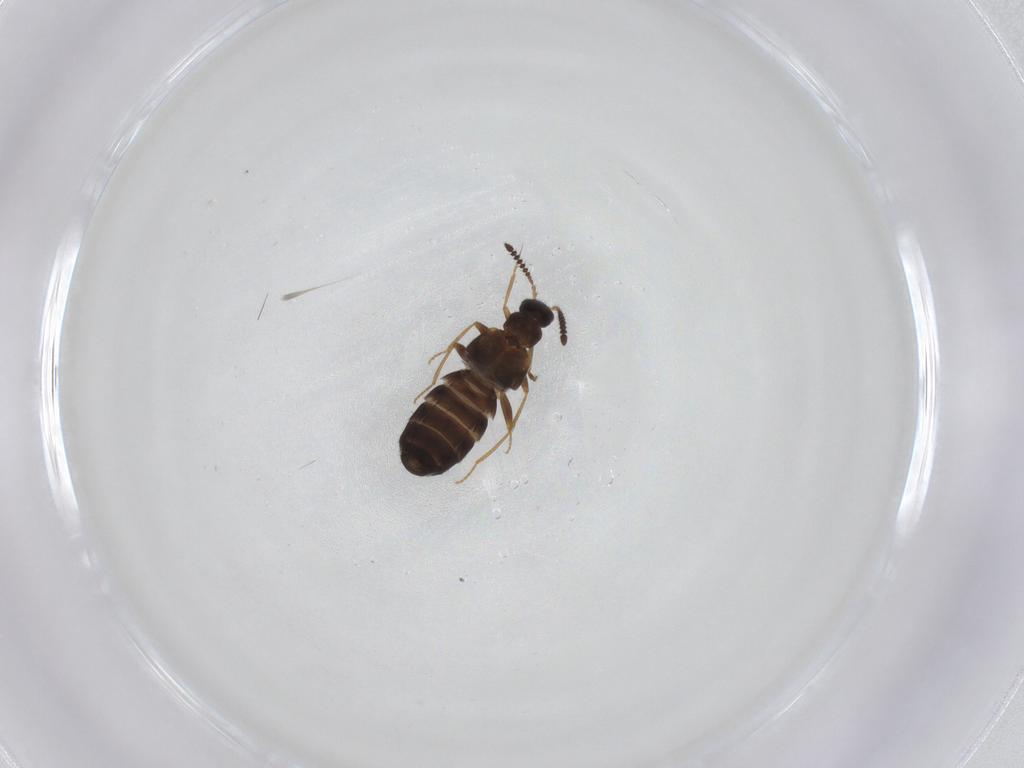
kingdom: Animalia
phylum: Arthropoda
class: Insecta
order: Coleoptera
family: Staphylinidae
